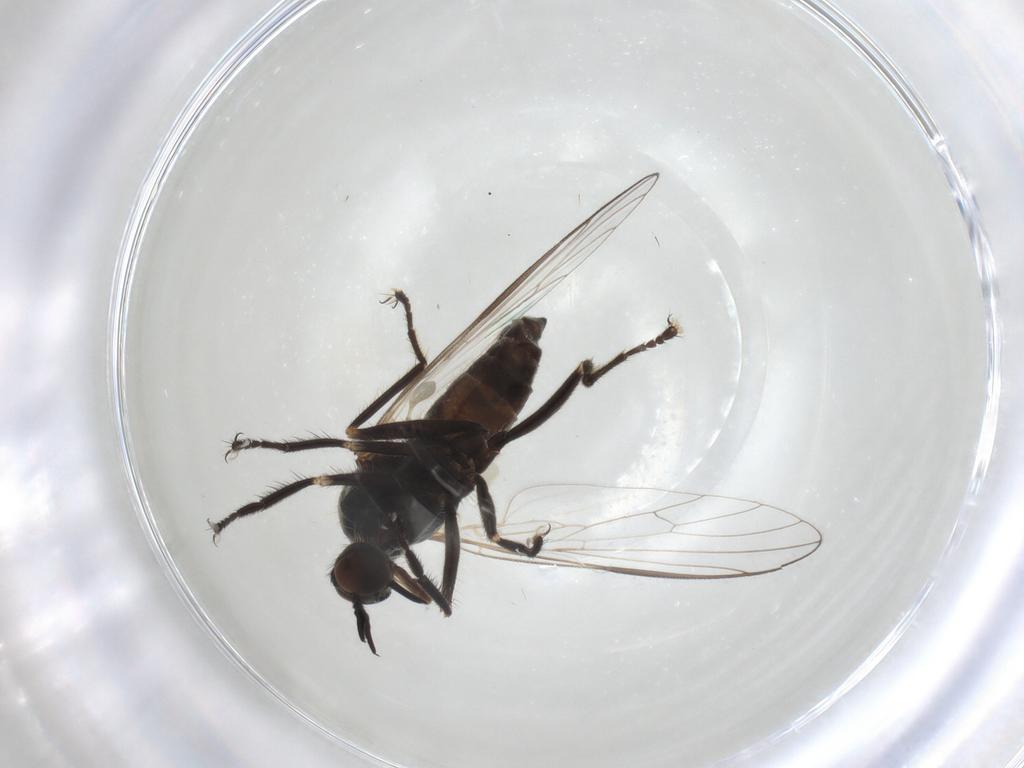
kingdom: Animalia
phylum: Arthropoda
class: Insecta
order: Diptera
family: Empididae
